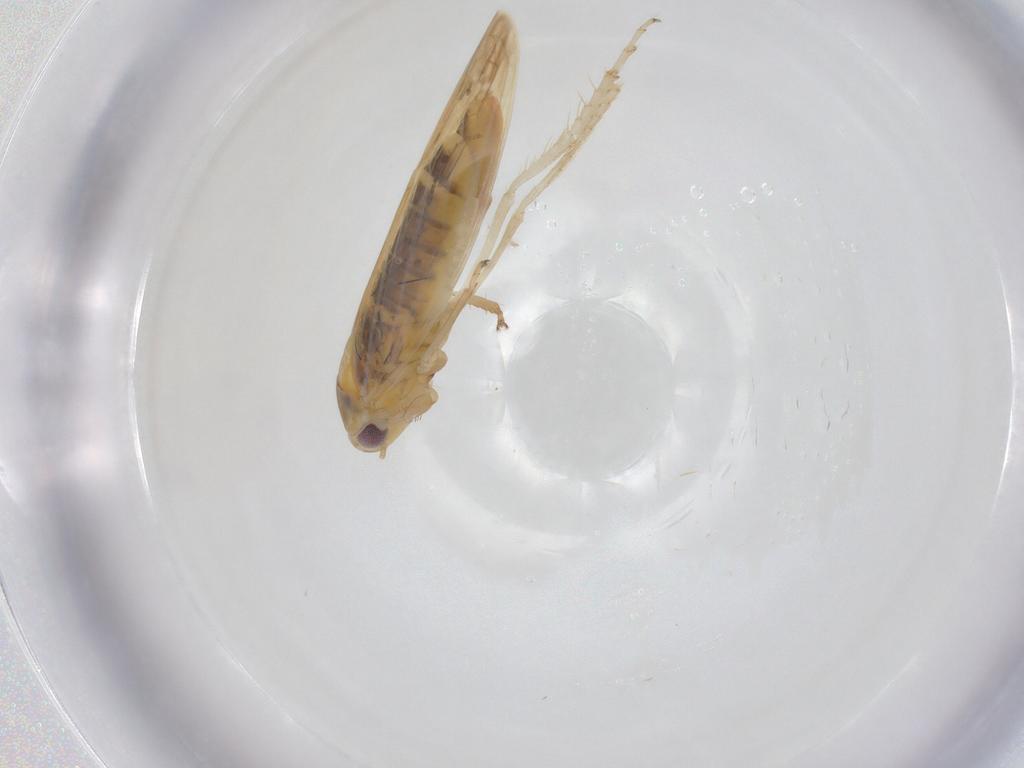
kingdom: Animalia
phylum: Arthropoda
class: Insecta
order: Hemiptera
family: Cicadellidae
